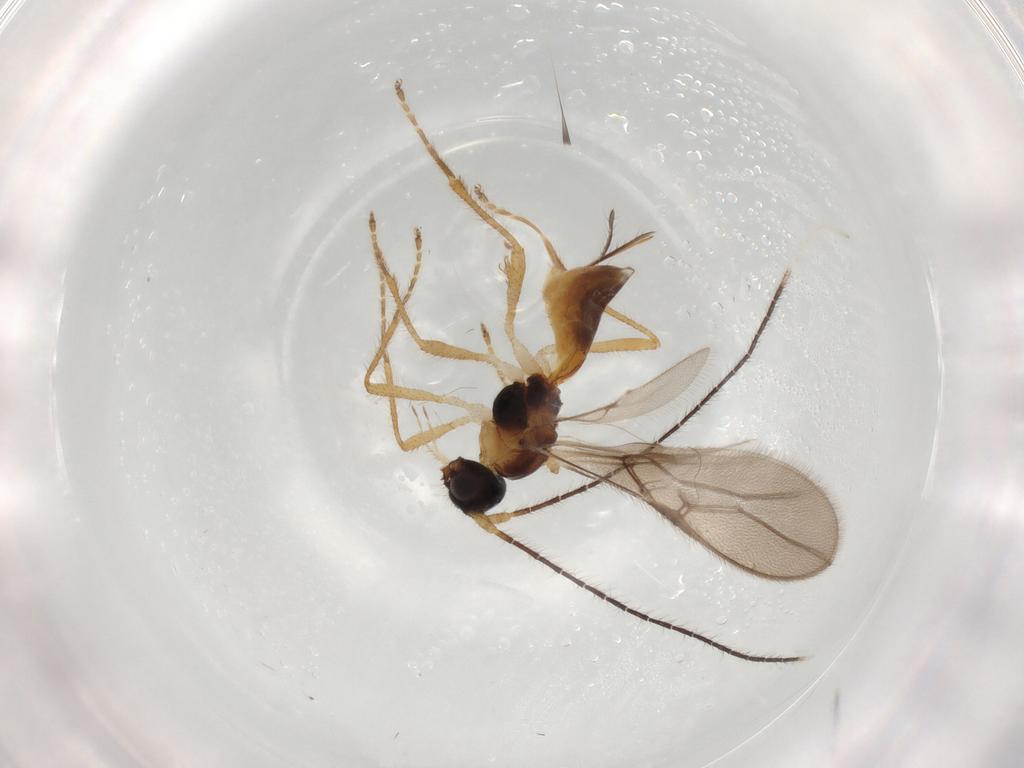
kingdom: Animalia
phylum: Arthropoda
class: Insecta
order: Hymenoptera
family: Braconidae
